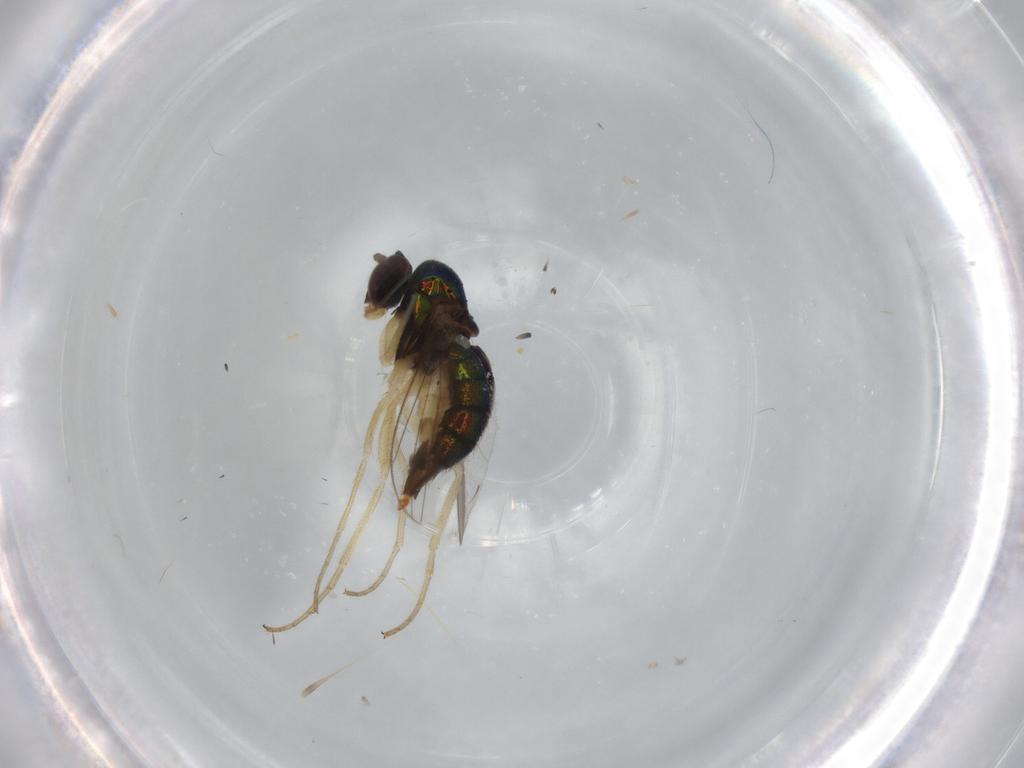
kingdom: Animalia
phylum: Arthropoda
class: Insecta
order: Diptera
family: Dolichopodidae
